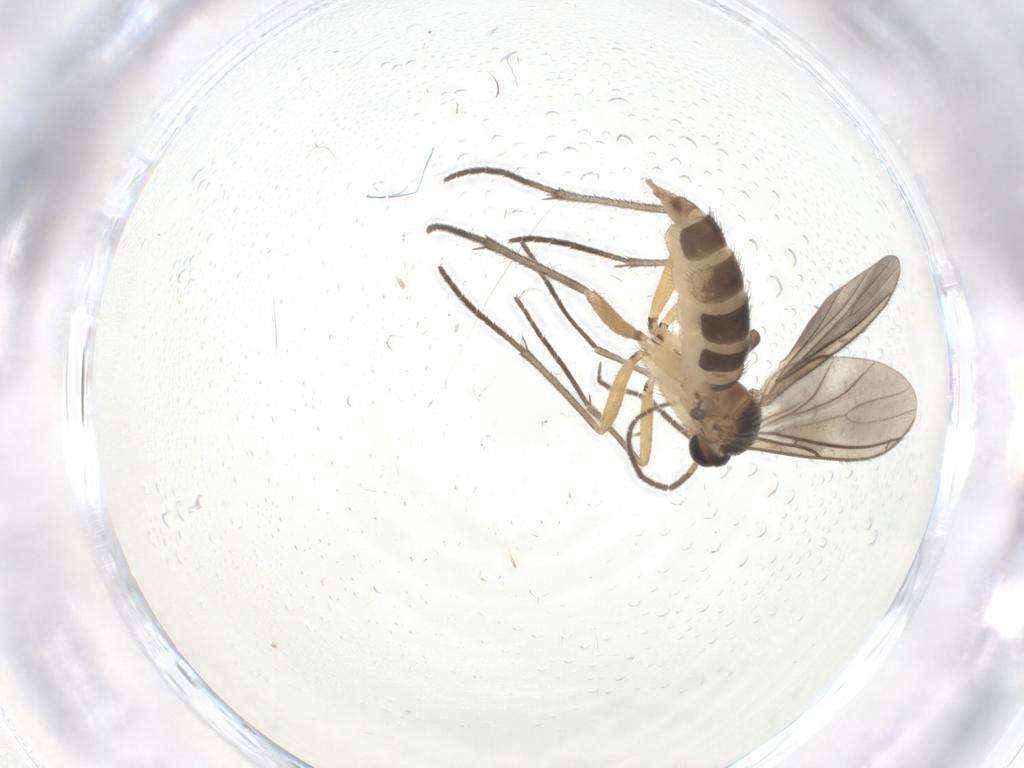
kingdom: Animalia
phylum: Arthropoda
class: Insecta
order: Diptera
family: Sciaridae
